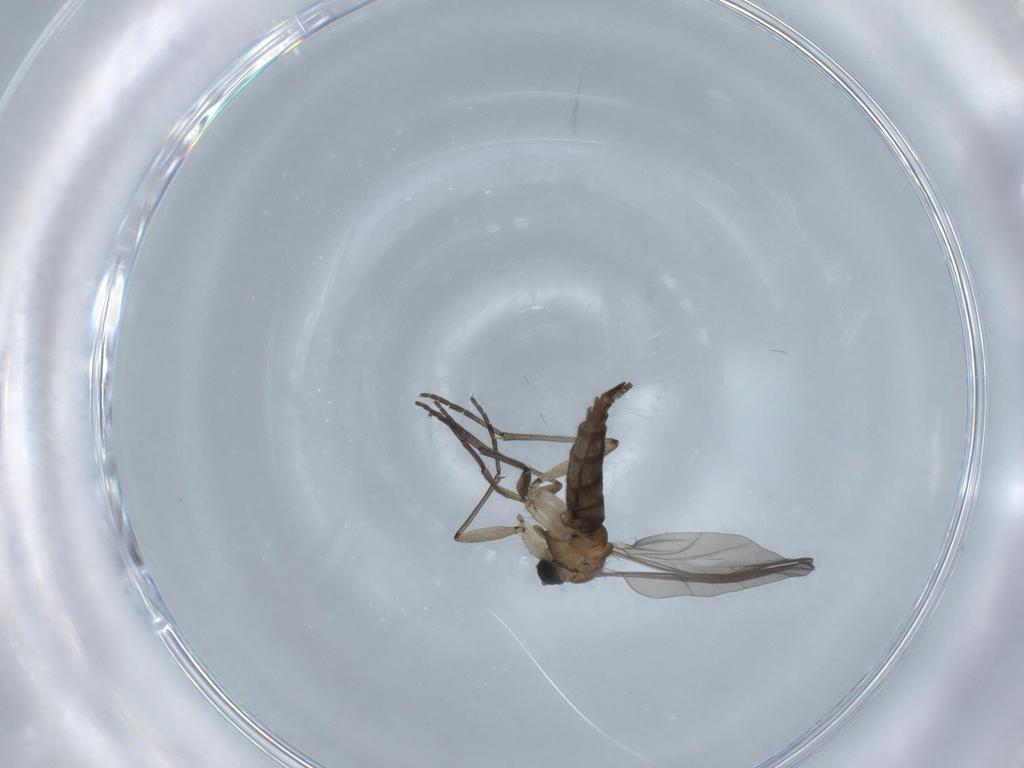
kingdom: Animalia
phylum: Arthropoda
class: Insecta
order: Diptera
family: Sciaridae
